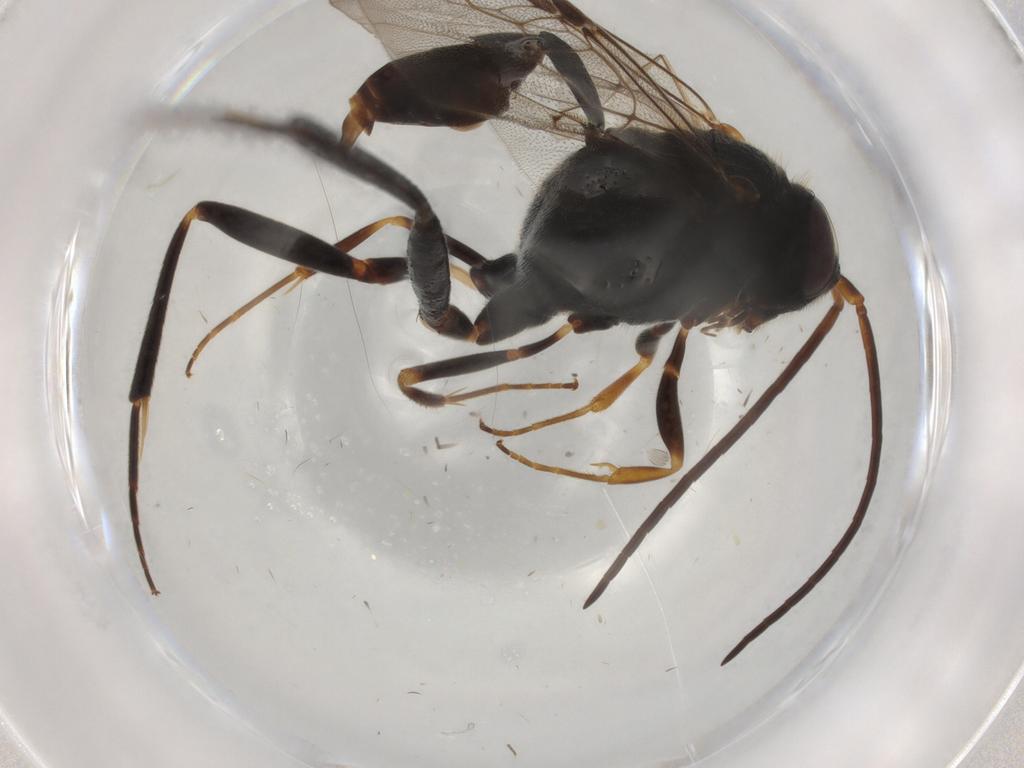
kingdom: Animalia
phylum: Arthropoda
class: Insecta
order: Hymenoptera
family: Evaniidae
